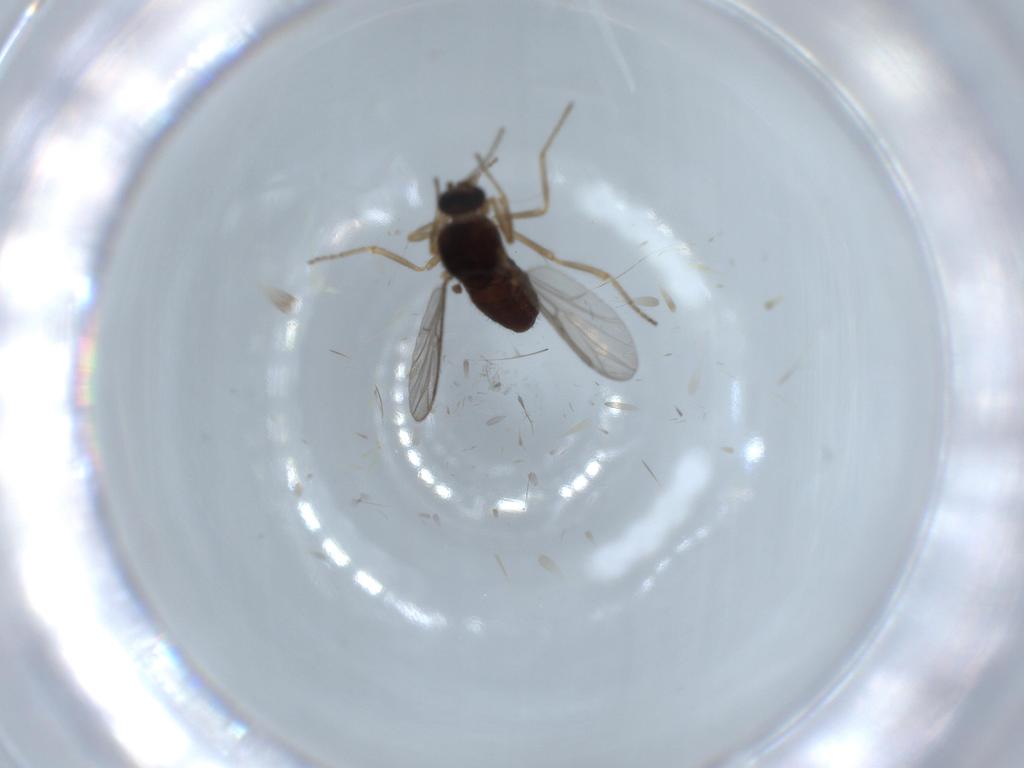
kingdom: Animalia
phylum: Arthropoda
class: Insecta
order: Diptera
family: Ceratopogonidae
